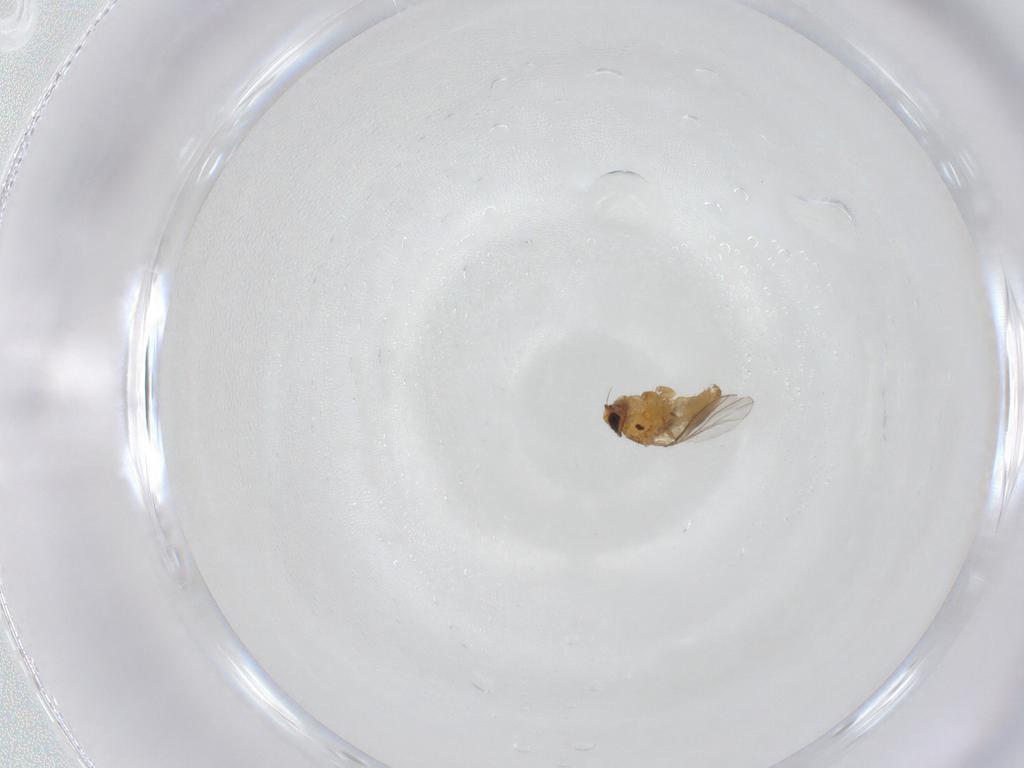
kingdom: Animalia
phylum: Arthropoda
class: Insecta
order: Diptera
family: Chloropidae
